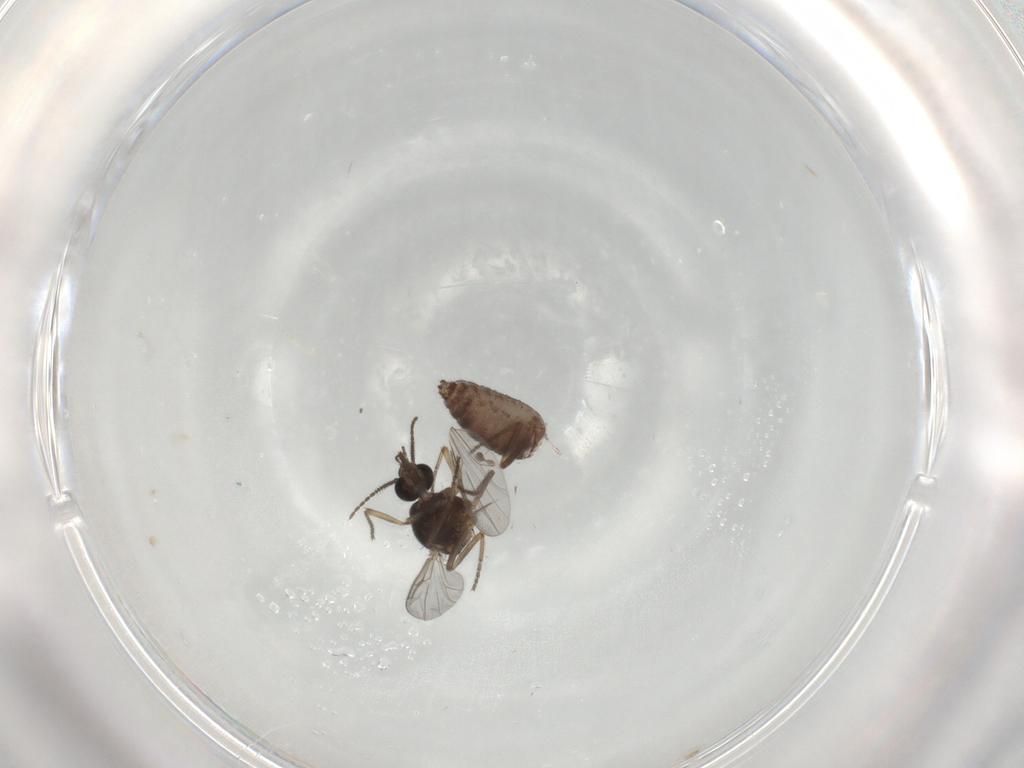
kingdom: Animalia
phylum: Arthropoda
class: Insecta
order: Diptera
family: Ceratopogonidae
